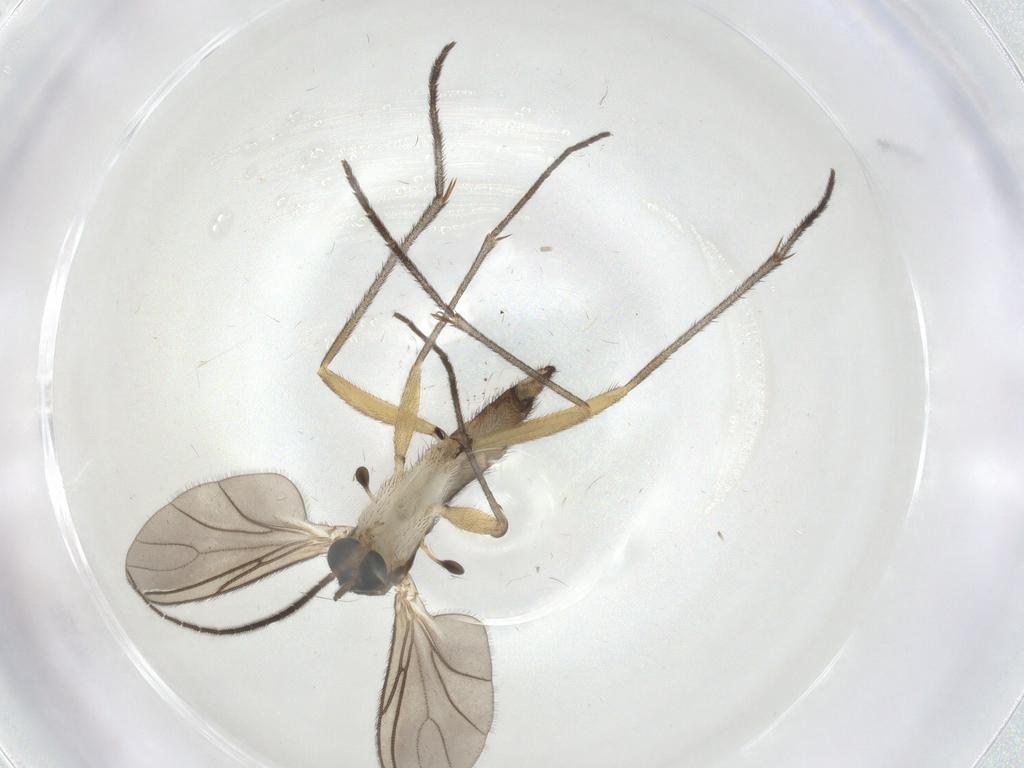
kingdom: Animalia
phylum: Arthropoda
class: Insecta
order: Diptera
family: Sciaridae
